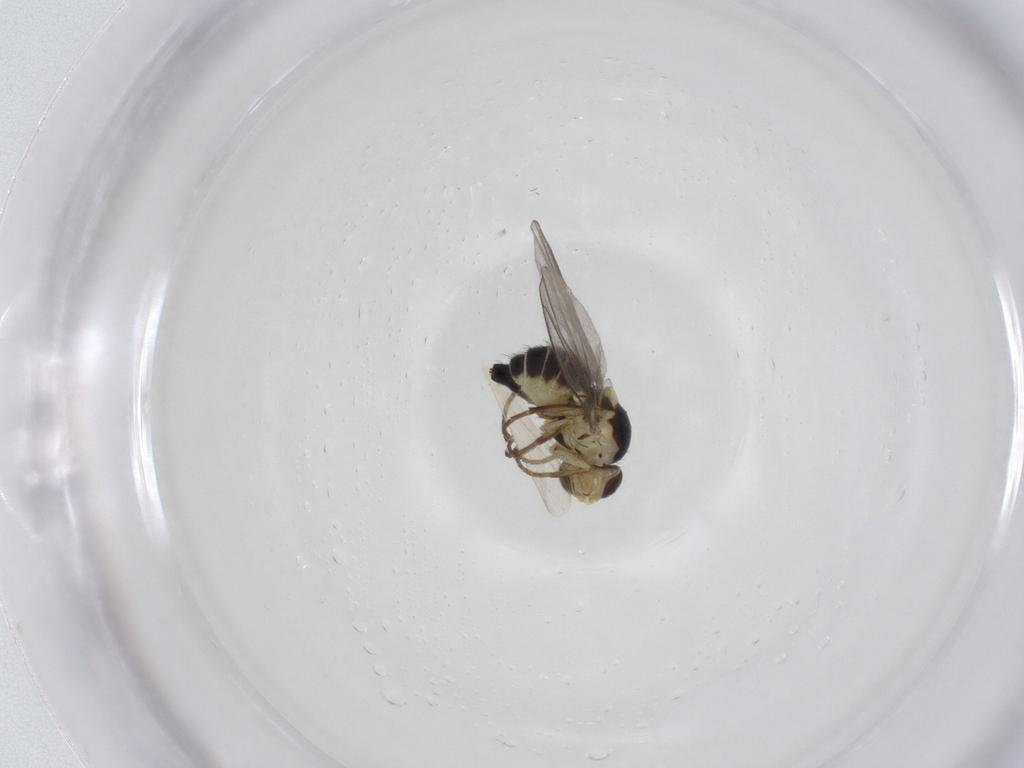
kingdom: Animalia
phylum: Arthropoda
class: Insecta
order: Diptera
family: Agromyzidae
